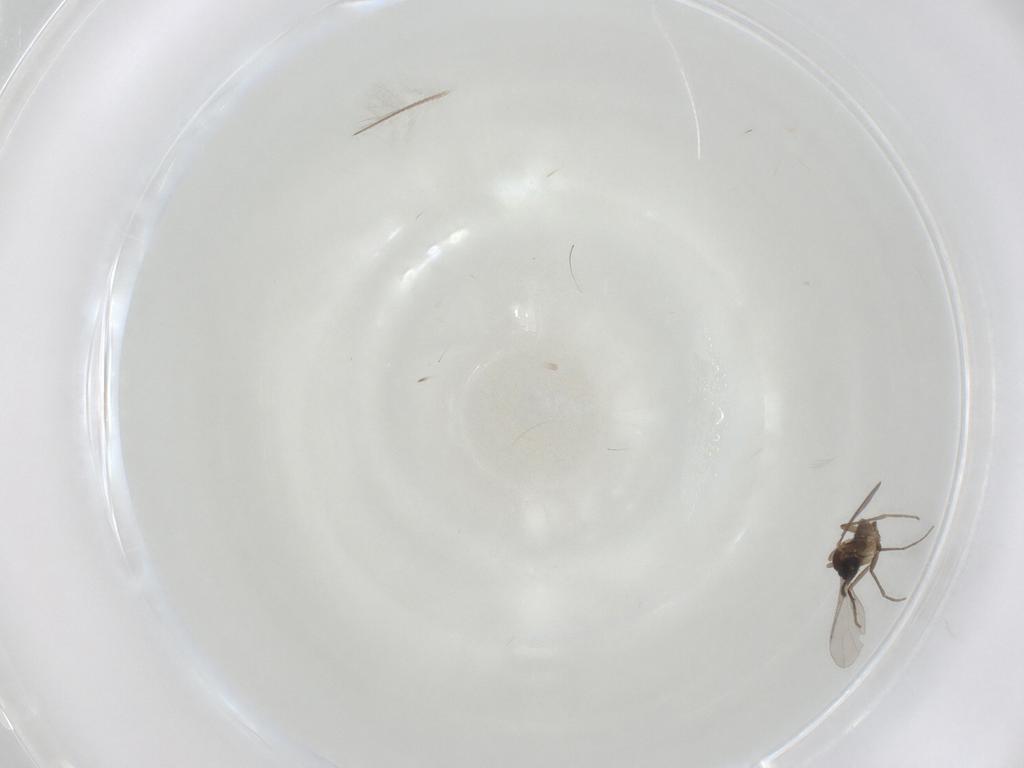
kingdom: Animalia
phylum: Arthropoda
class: Insecta
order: Diptera
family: Sciaridae
